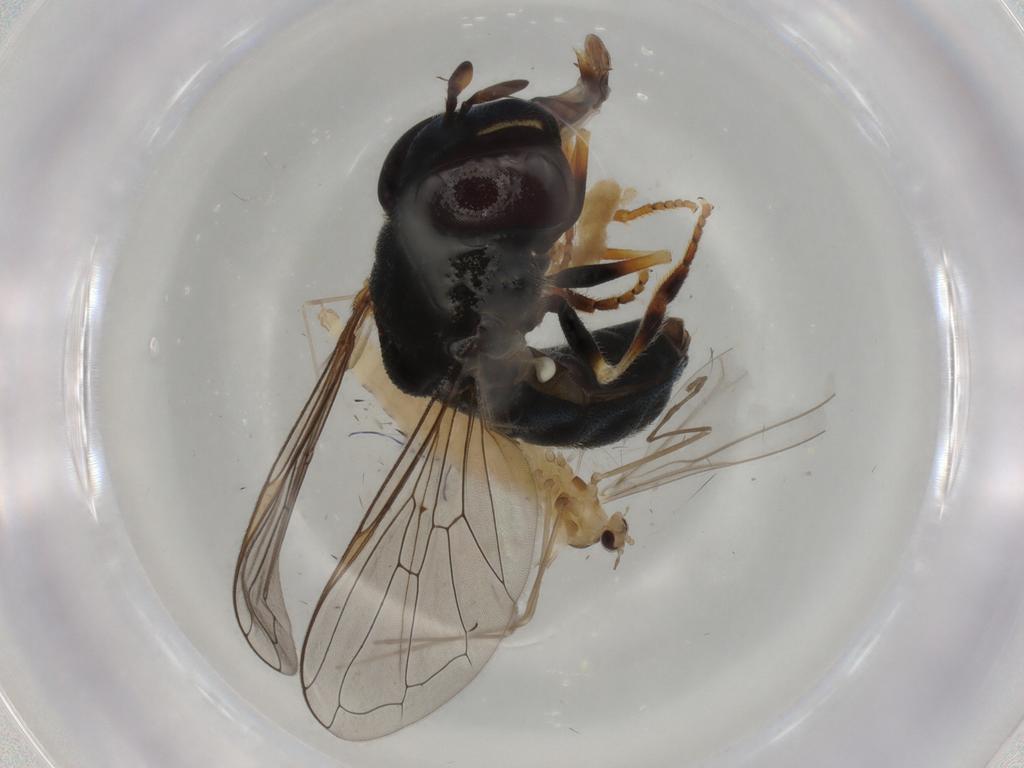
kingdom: Animalia
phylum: Arthropoda
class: Insecta
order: Diptera
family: Syrphidae
